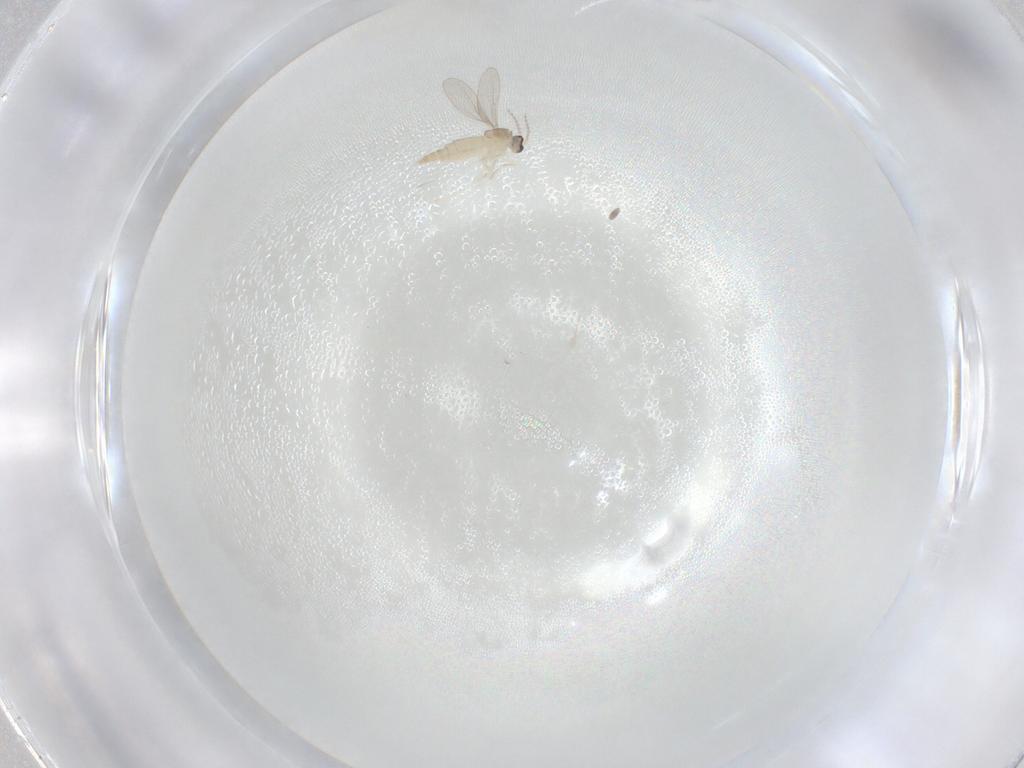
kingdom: Animalia
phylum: Arthropoda
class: Insecta
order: Diptera
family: Cecidomyiidae
